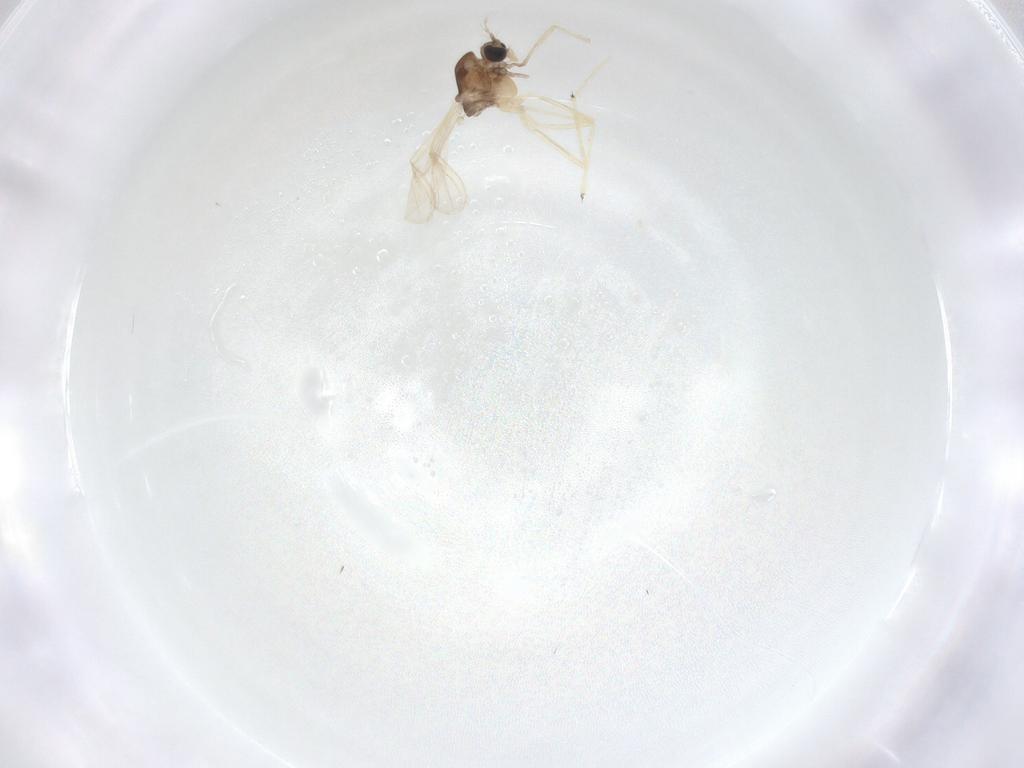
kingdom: Animalia
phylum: Arthropoda
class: Insecta
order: Diptera
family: Chironomidae
